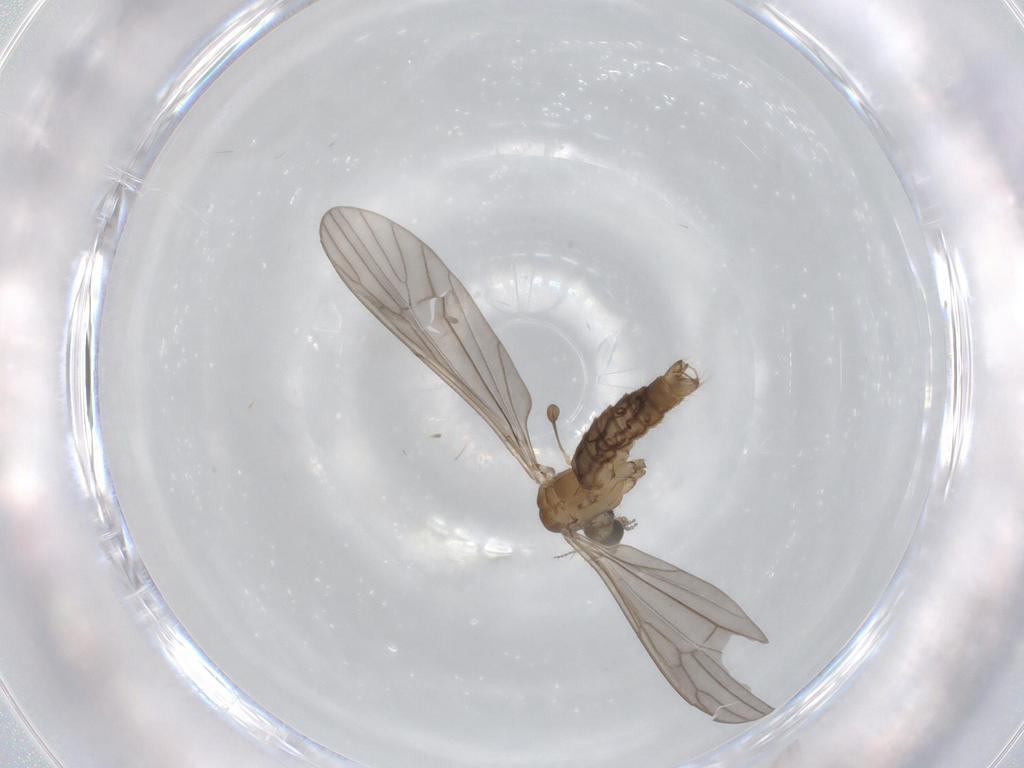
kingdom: Animalia
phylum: Arthropoda
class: Insecta
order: Diptera
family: Limoniidae
